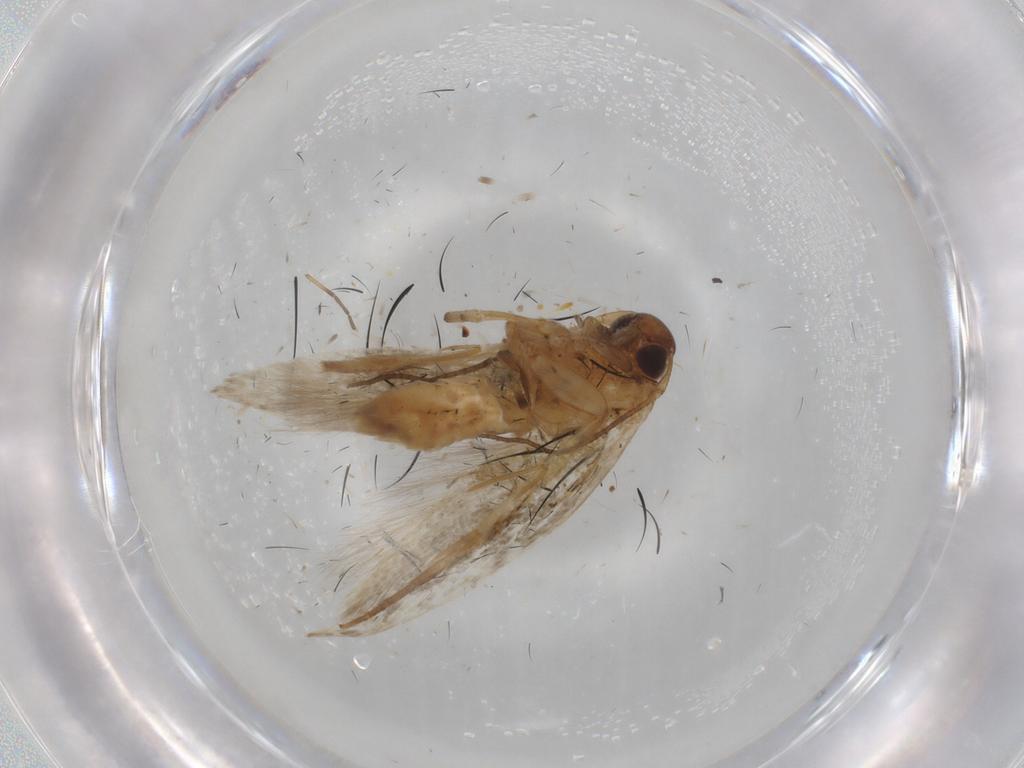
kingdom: Animalia
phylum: Arthropoda
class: Insecta
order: Lepidoptera
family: Cosmopterigidae
